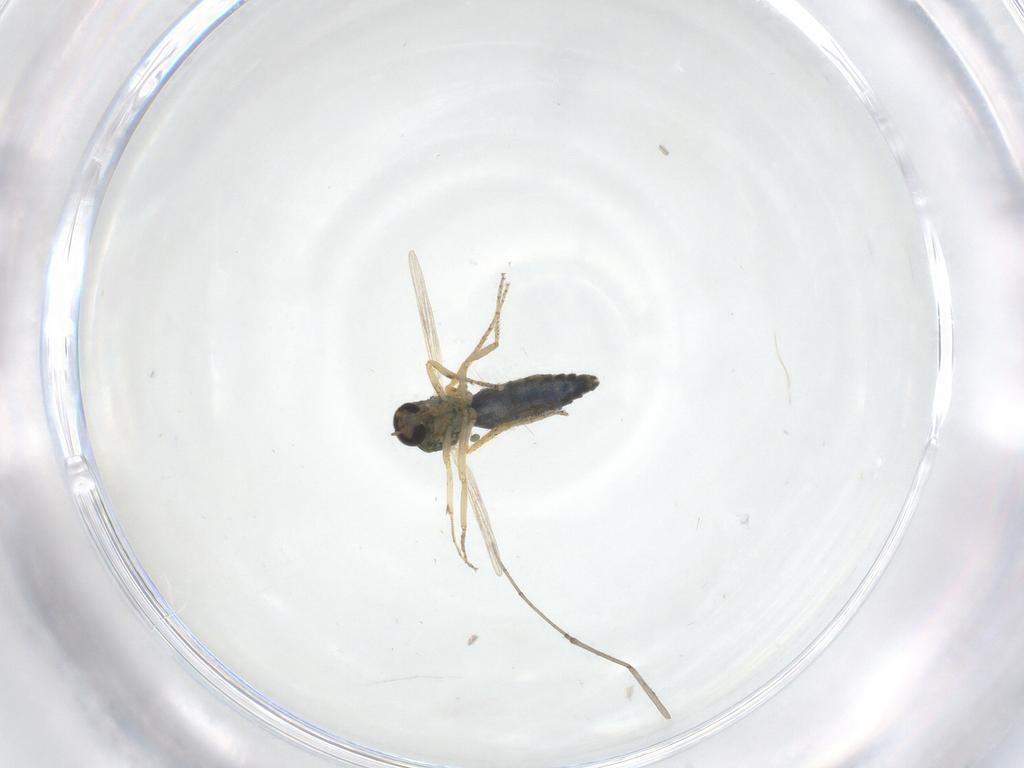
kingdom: Animalia
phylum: Arthropoda
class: Insecta
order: Diptera
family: Ceratopogonidae
